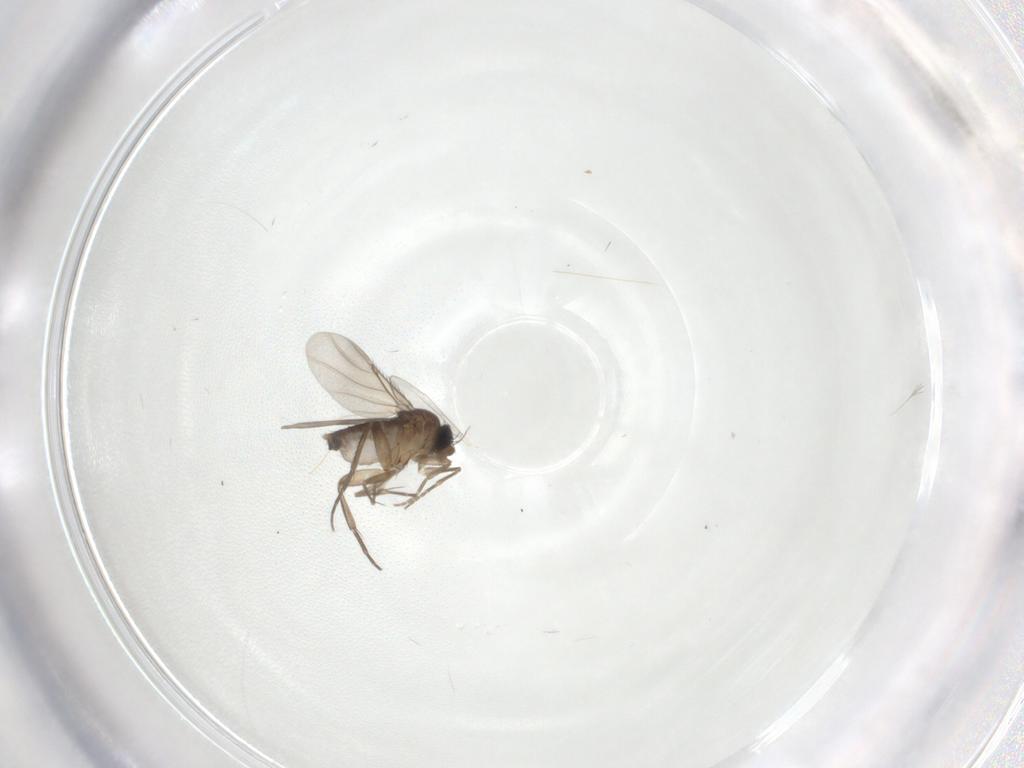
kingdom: Animalia
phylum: Arthropoda
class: Insecta
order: Diptera
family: Cecidomyiidae
